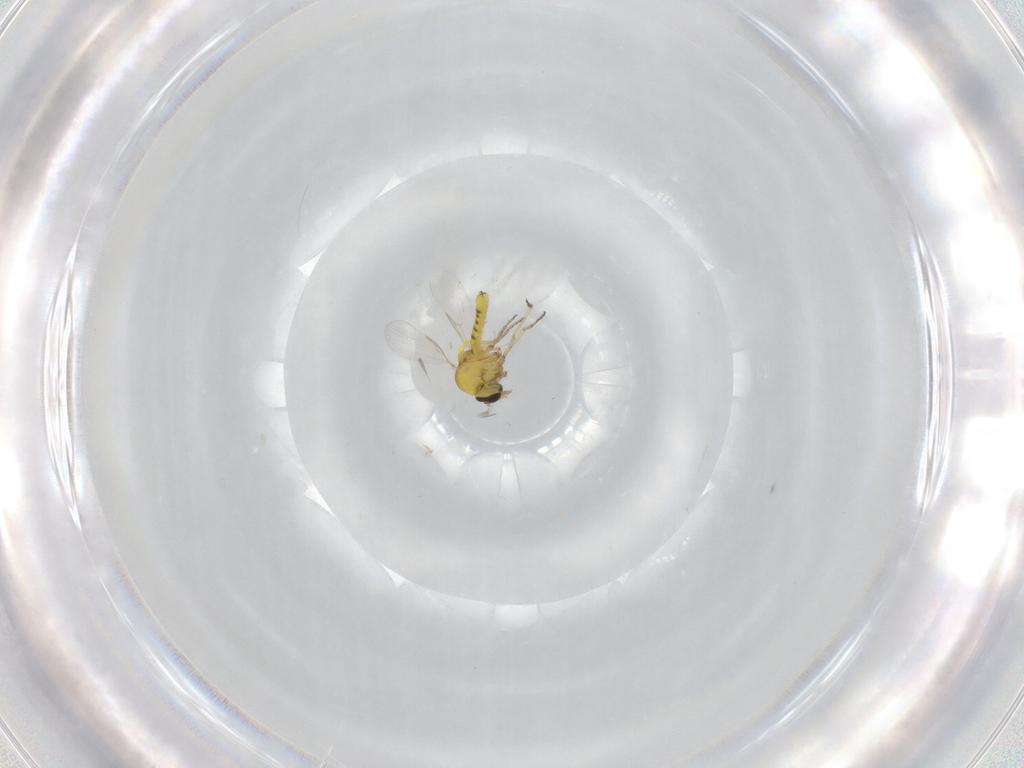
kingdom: Animalia
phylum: Arthropoda
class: Insecta
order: Diptera
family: Ceratopogonidae
